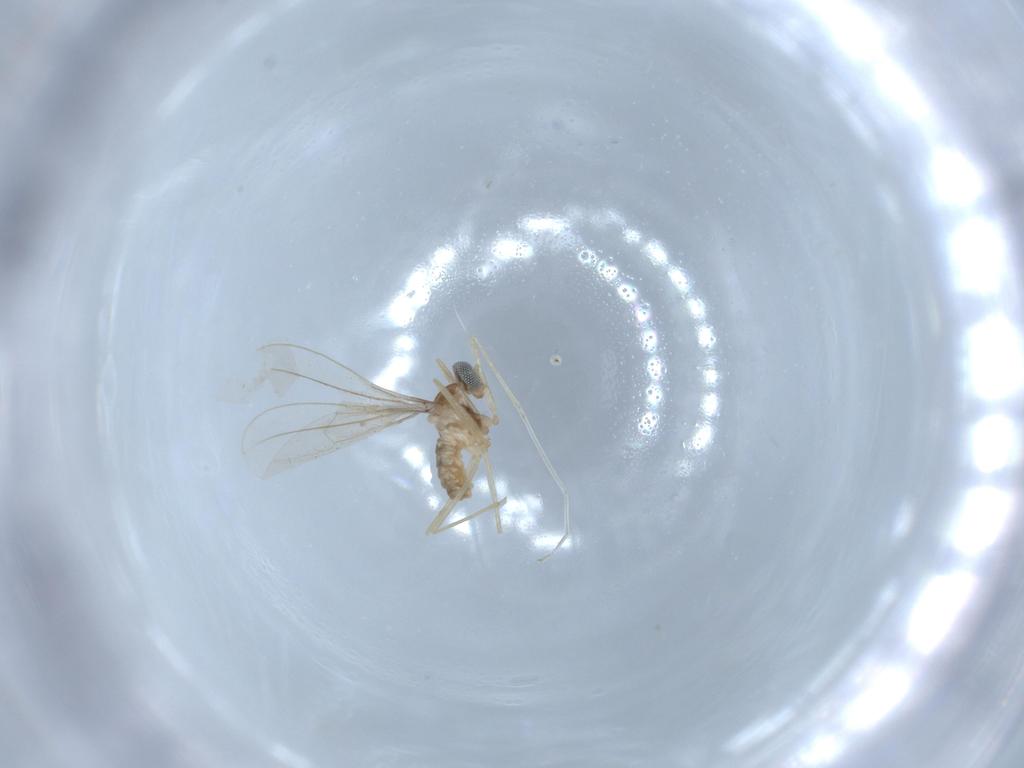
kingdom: Animalia
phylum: Arthropoda
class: Insecta
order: Diptera
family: Cecidomyiidae
